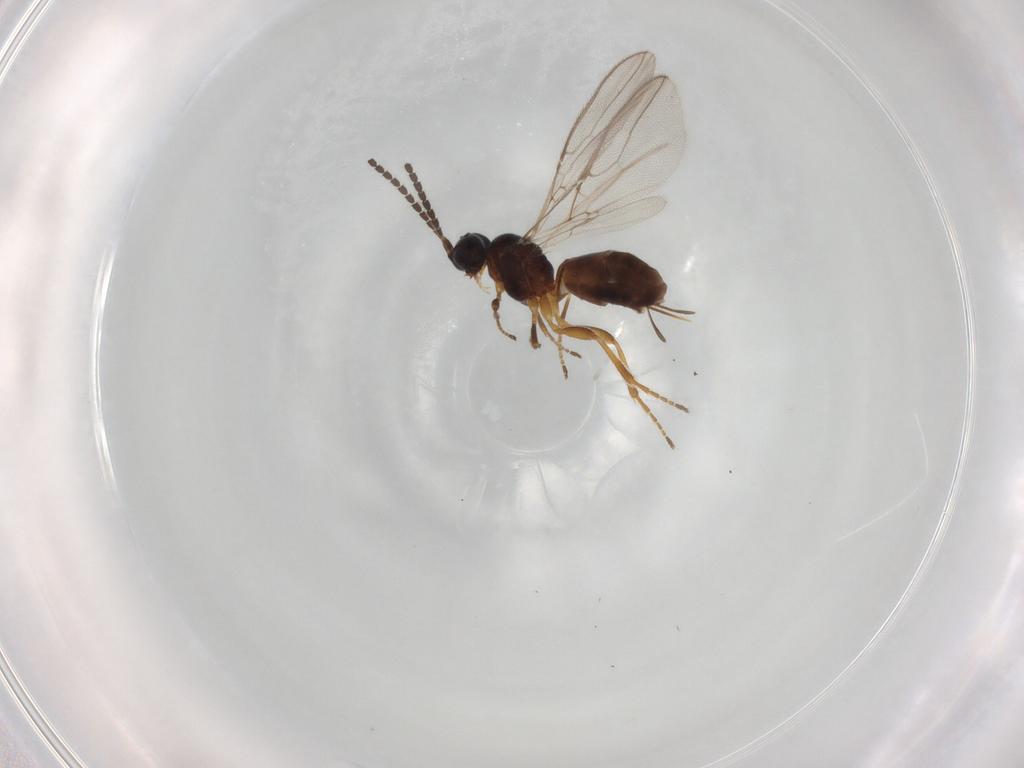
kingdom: Animalia
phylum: Arthropoda
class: Insecta
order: Hymenoptera
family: Braconidae
